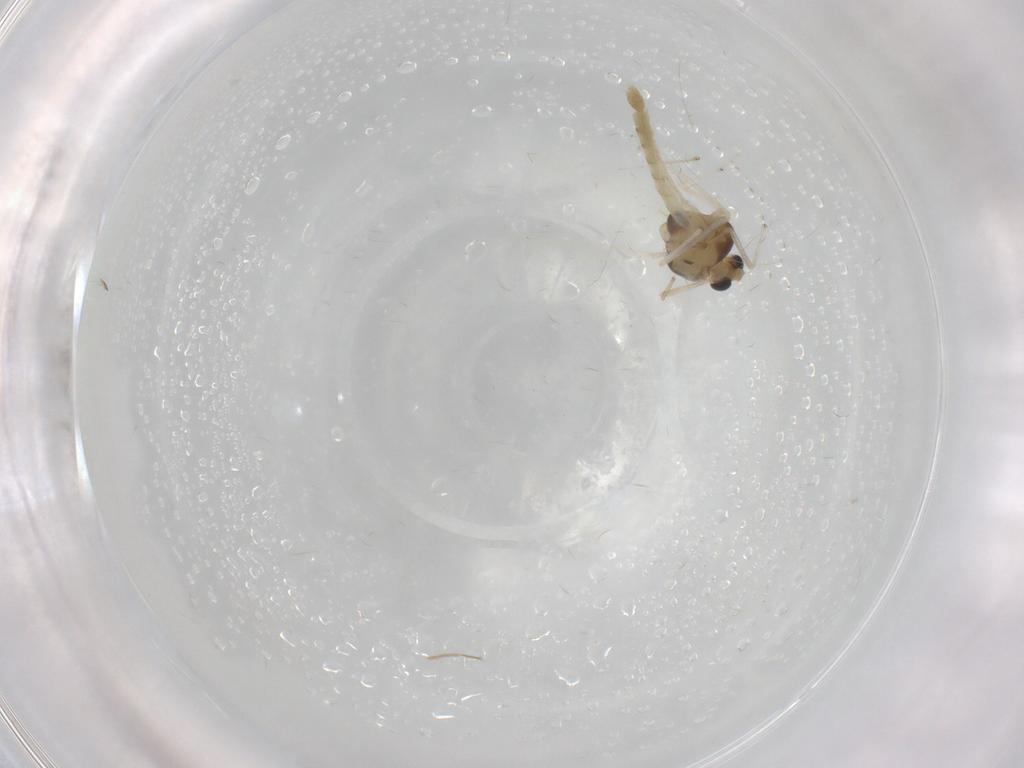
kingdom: Animalia
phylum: Arthropoda
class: Insecta
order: Diptera
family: Chironomidae
